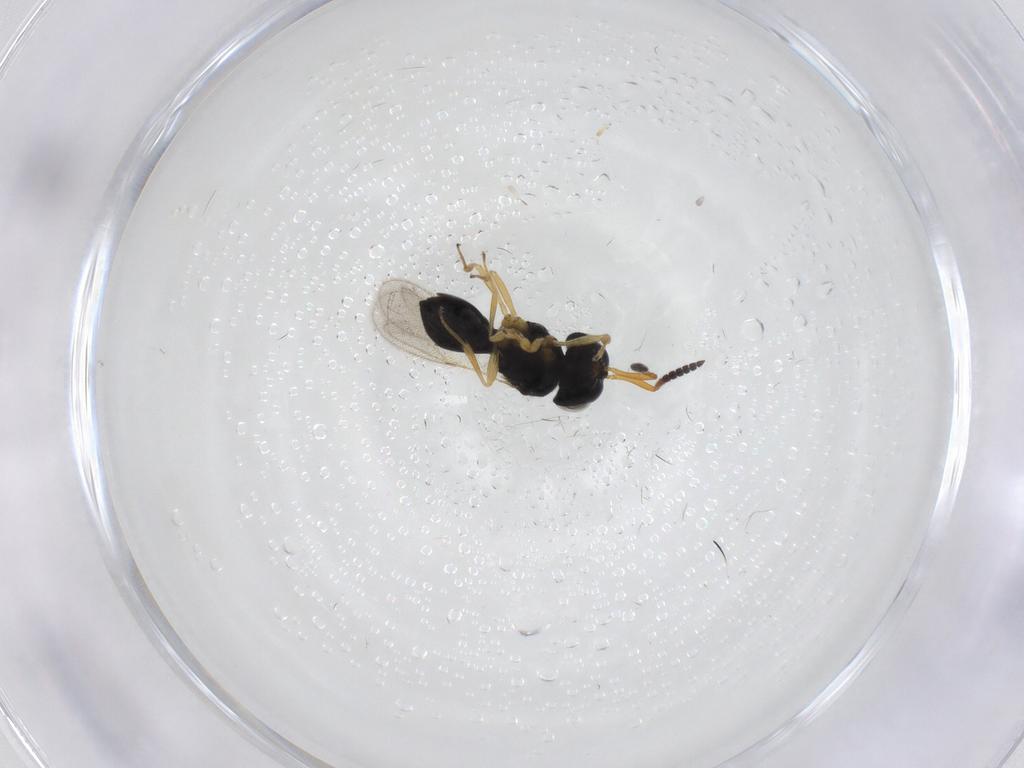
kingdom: Animalia
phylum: Arthropoda
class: Insecta
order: Hymenoptera
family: Scelionidae
